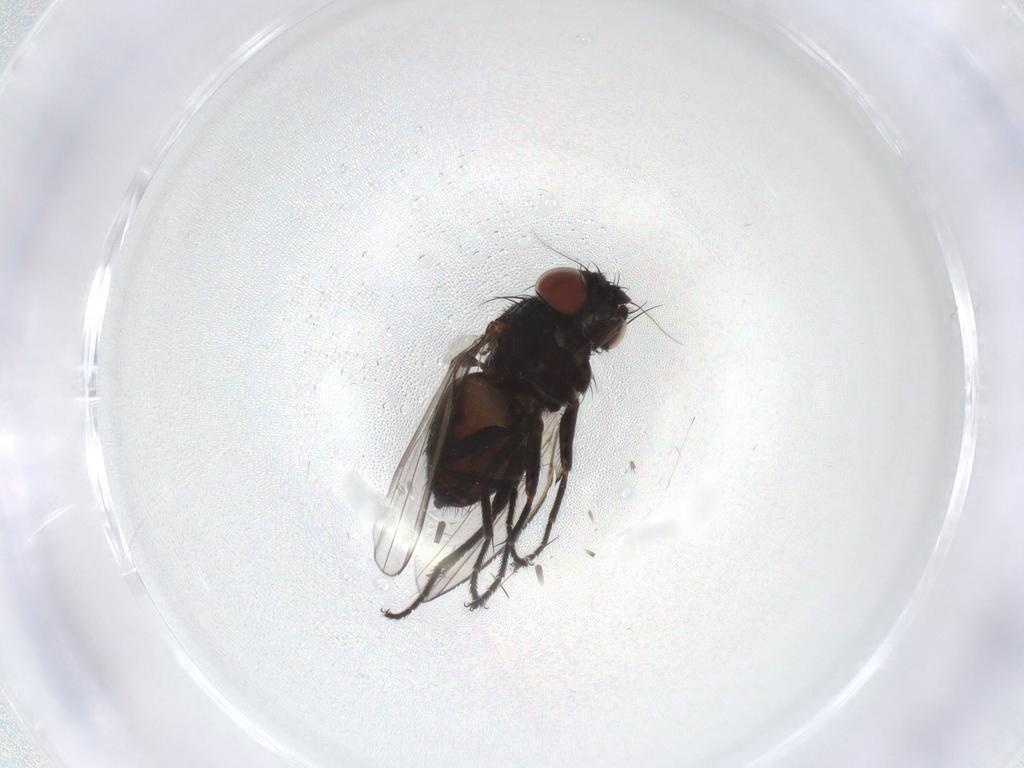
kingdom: Animalia
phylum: Arthropoda
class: Insecta
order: Diptera
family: Milichiidae
